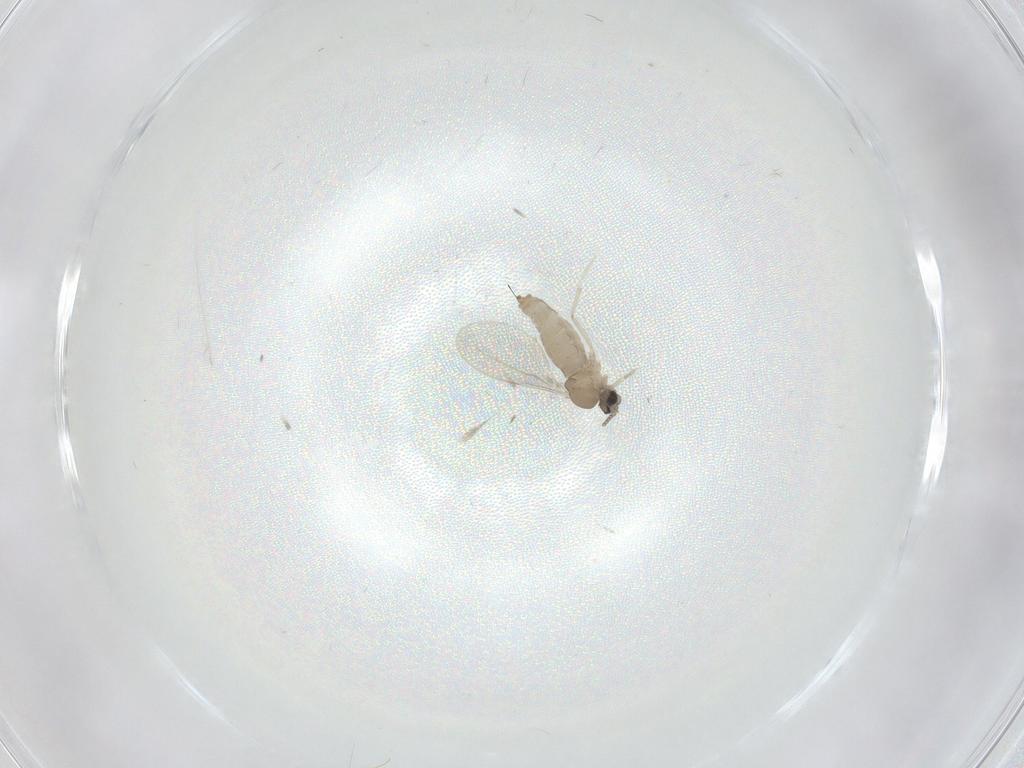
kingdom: Animalia
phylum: Arthropoda
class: Insecta
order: Diptera
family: Cecidomyiidae
